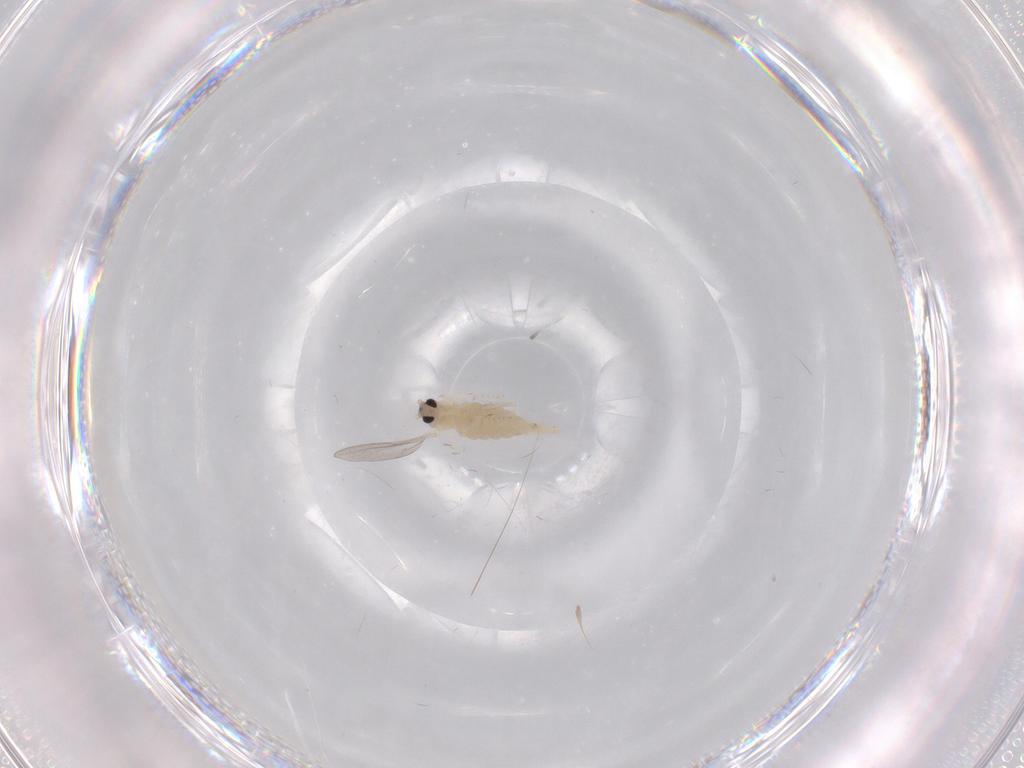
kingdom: Animalia
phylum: Arthropoda
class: Insecta
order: Diptera
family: Cecidomyiidae
